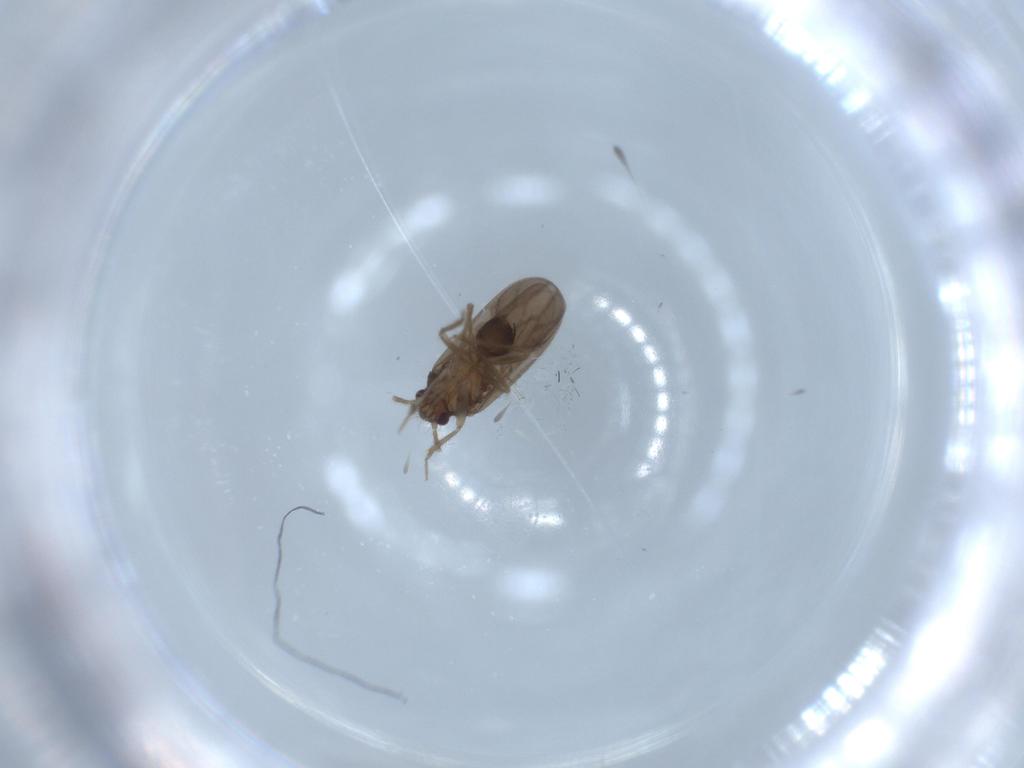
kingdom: Animalia
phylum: Arthropoda
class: Insecta
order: Hemiptera
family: Ceratocombidae
